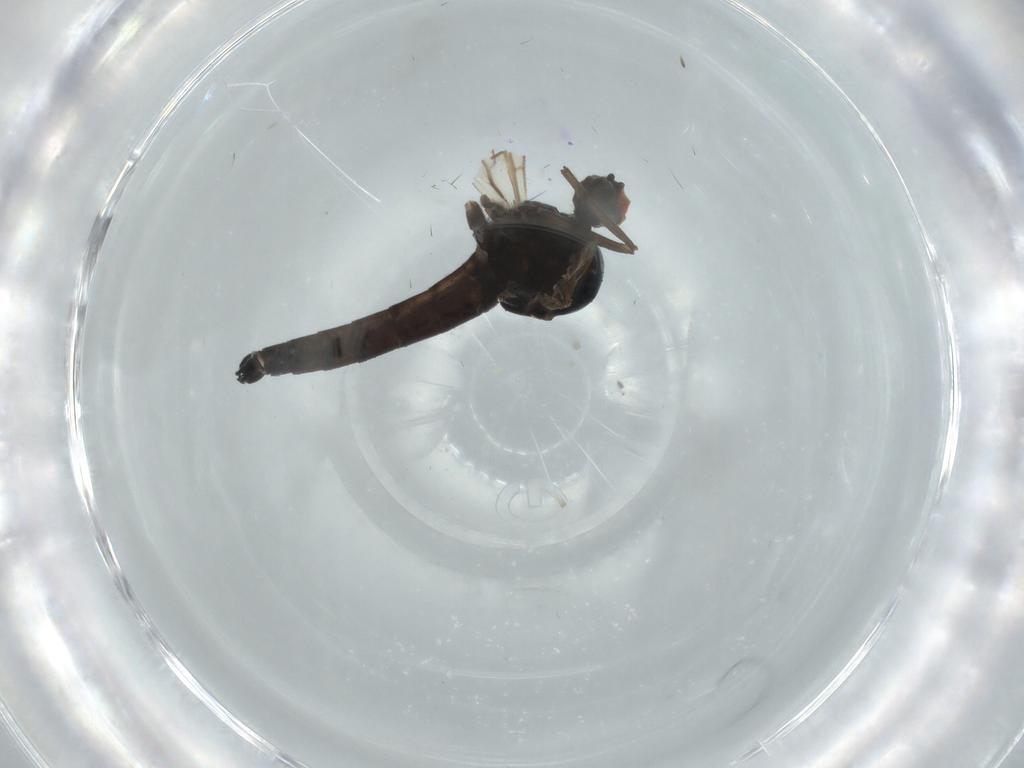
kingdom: Animalia
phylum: Arthropoda
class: Insecta
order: Diptera
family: Hybotidae
